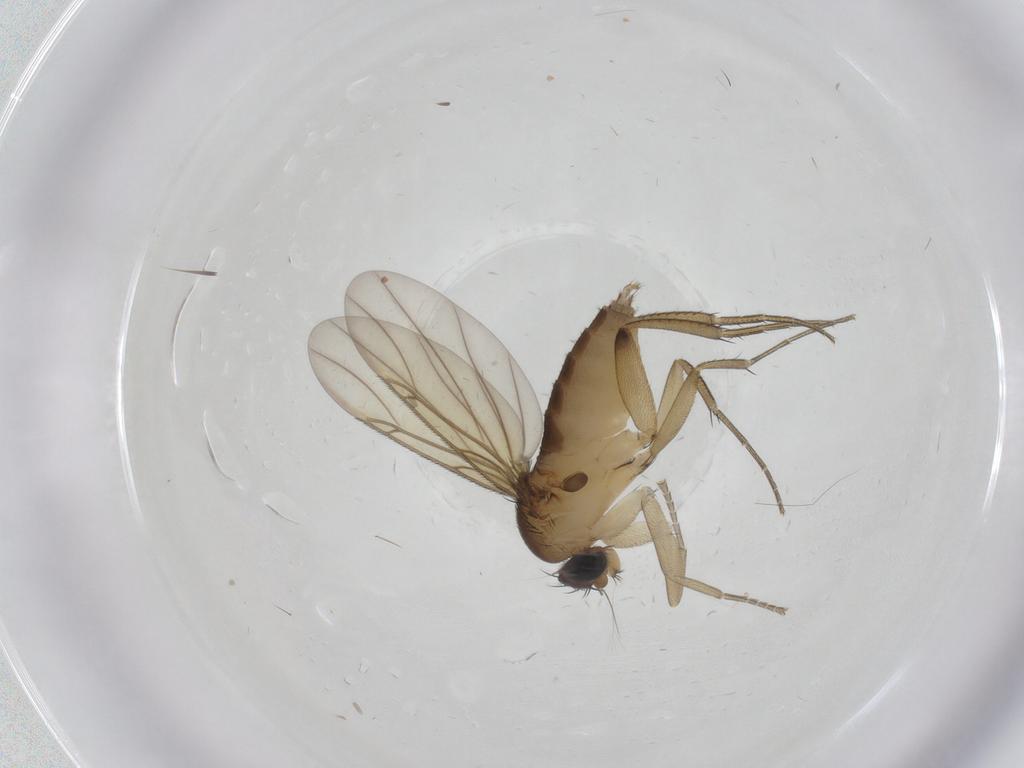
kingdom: Animalia
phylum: Arthropoda
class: Insecta
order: Diptera
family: Phoridae
